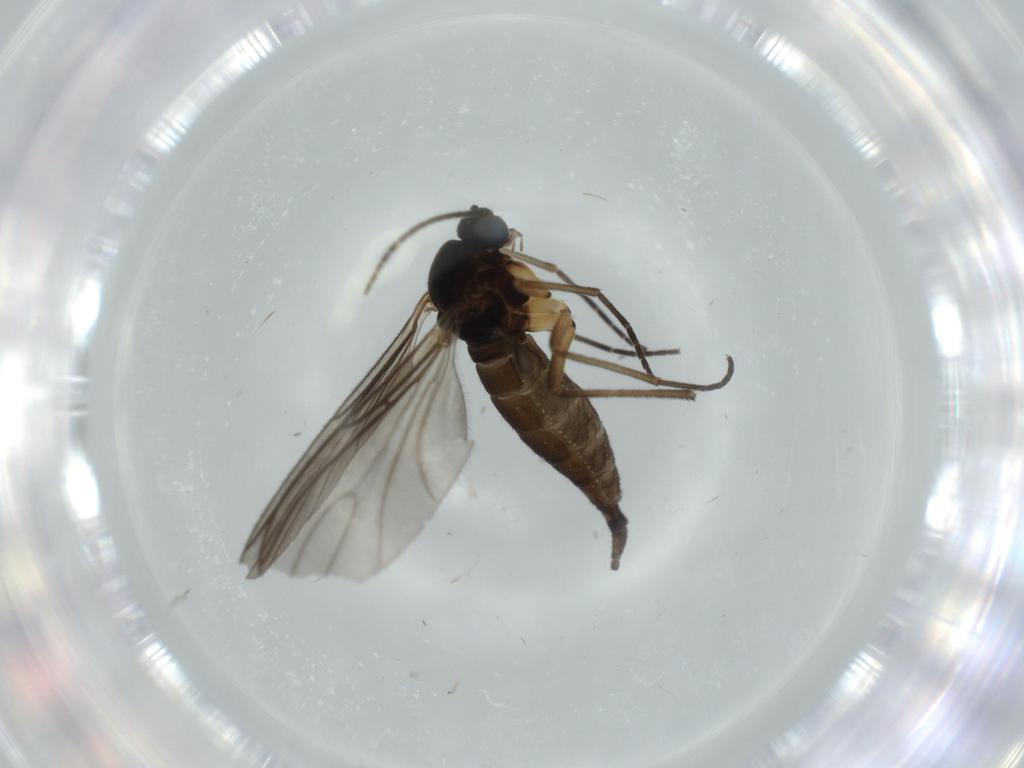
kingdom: Animalia
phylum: Arthropoda
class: Insecta
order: Diptera
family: Sciaridae
